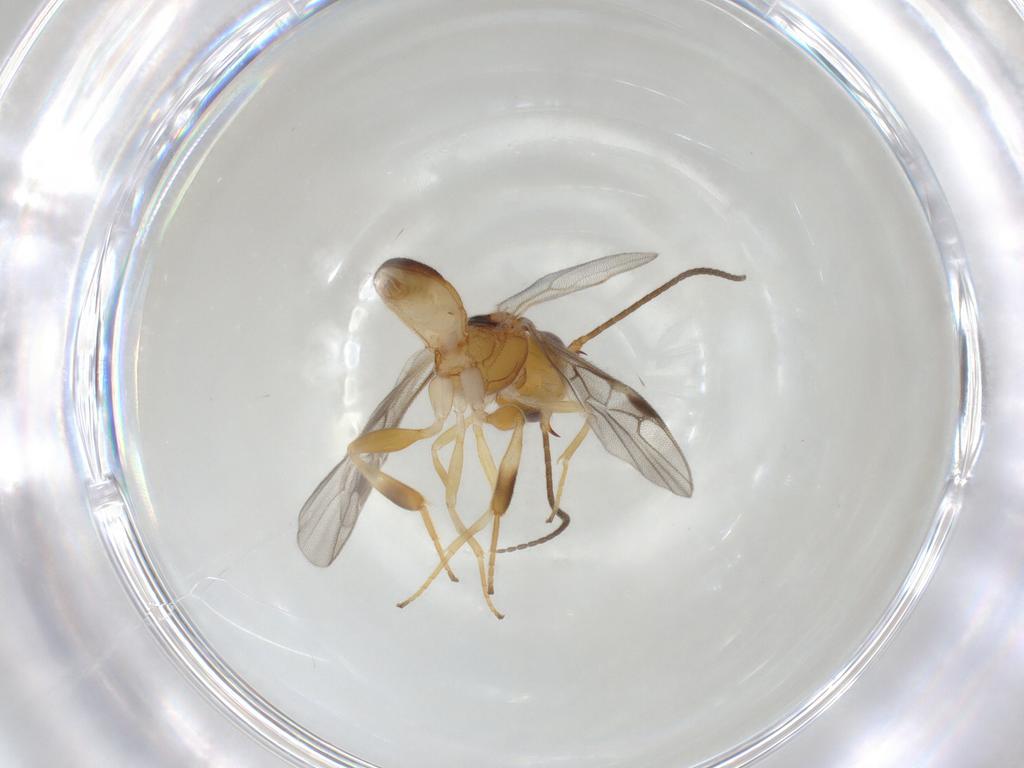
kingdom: Animalia
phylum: Arthropoda
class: Insecta
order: Hymenoptera
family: Braconidae
